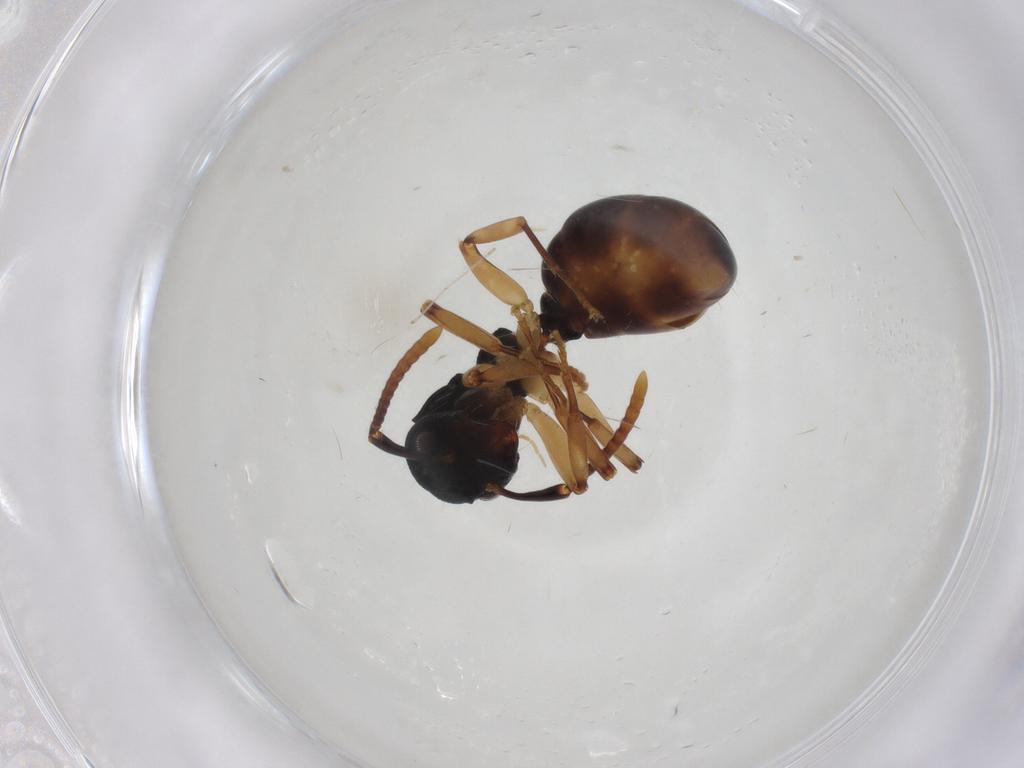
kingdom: Animalia
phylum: Arthropoda
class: Insecta
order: Hymenoptera
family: Formicidae
